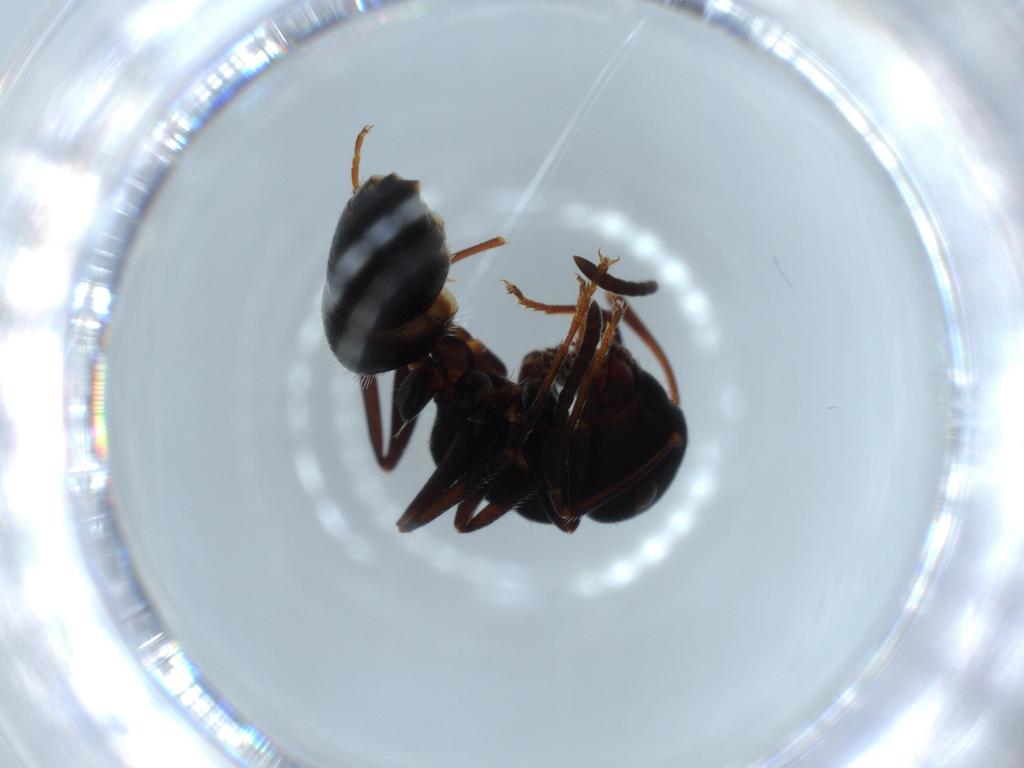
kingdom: Animalia
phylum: Arthropoda
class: Insecta
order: Hymenoptera
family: Formicidae
